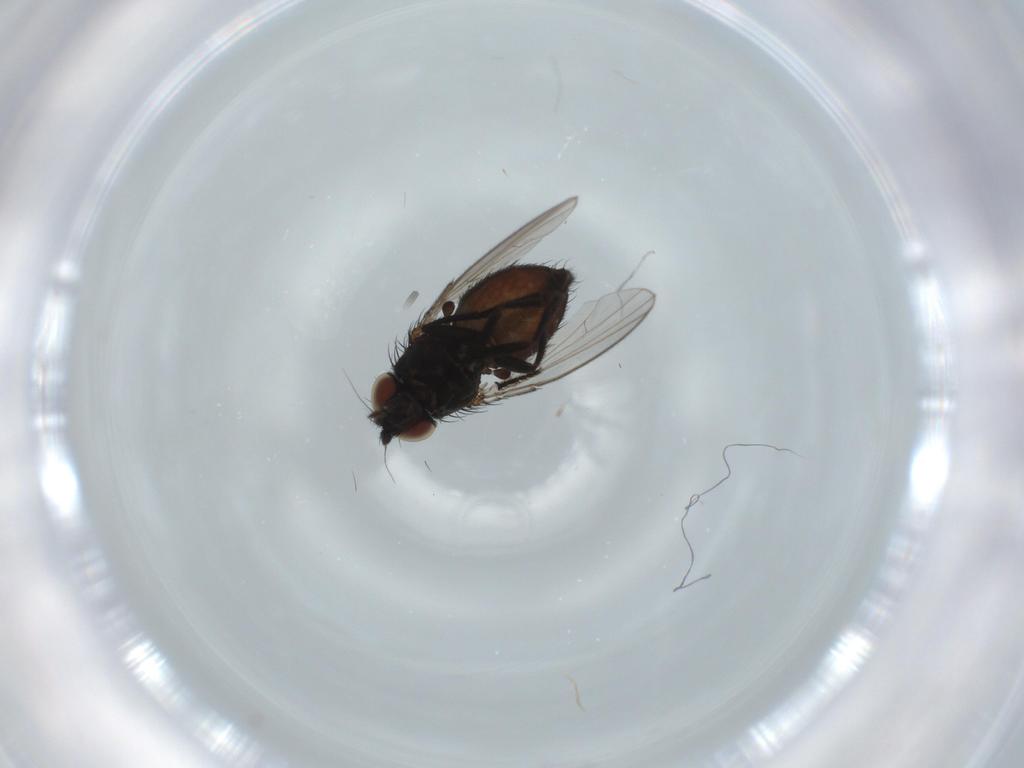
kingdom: Animalia
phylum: Arthropoda
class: Insecta
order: Diptera
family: Milichiidae
